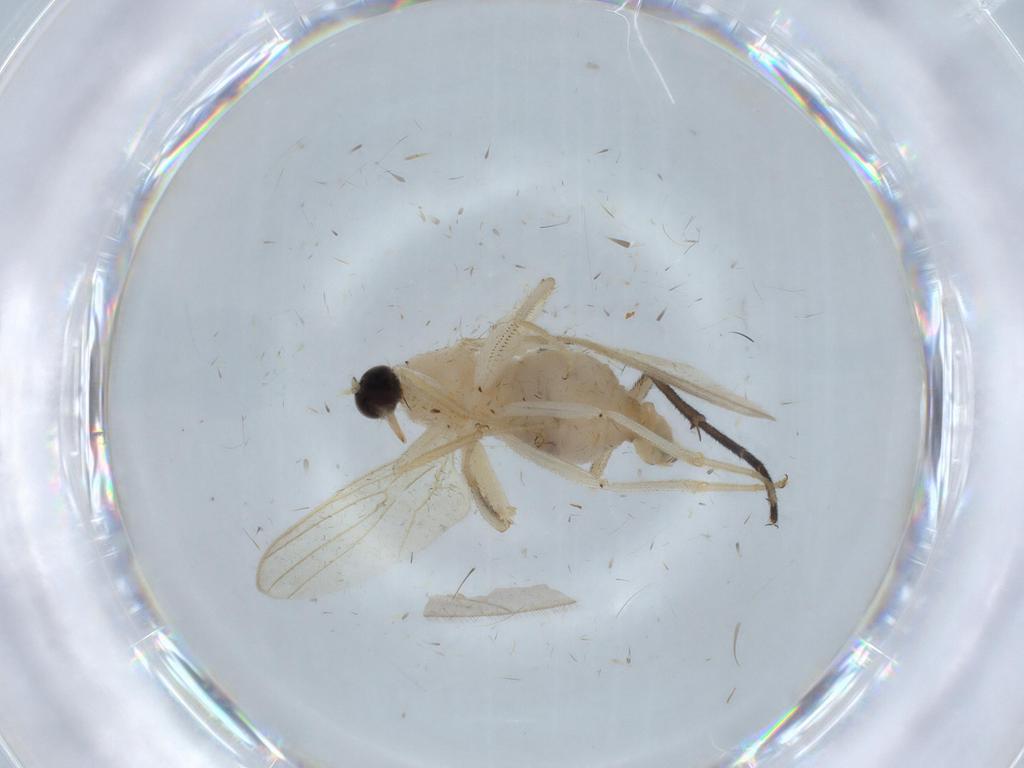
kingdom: Animalia
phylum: Arthropoda
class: Insecta
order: Diptera
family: Hybotidae
